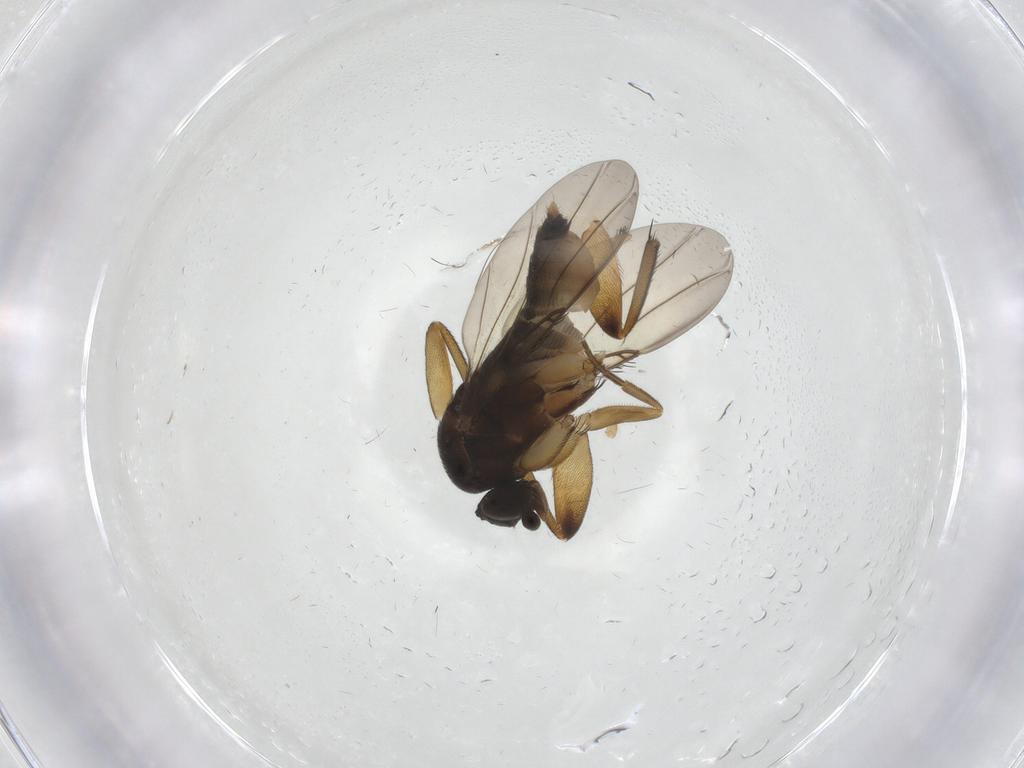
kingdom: Animalia
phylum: Arthropoda
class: Insecta
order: Diptera
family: Phoridae
